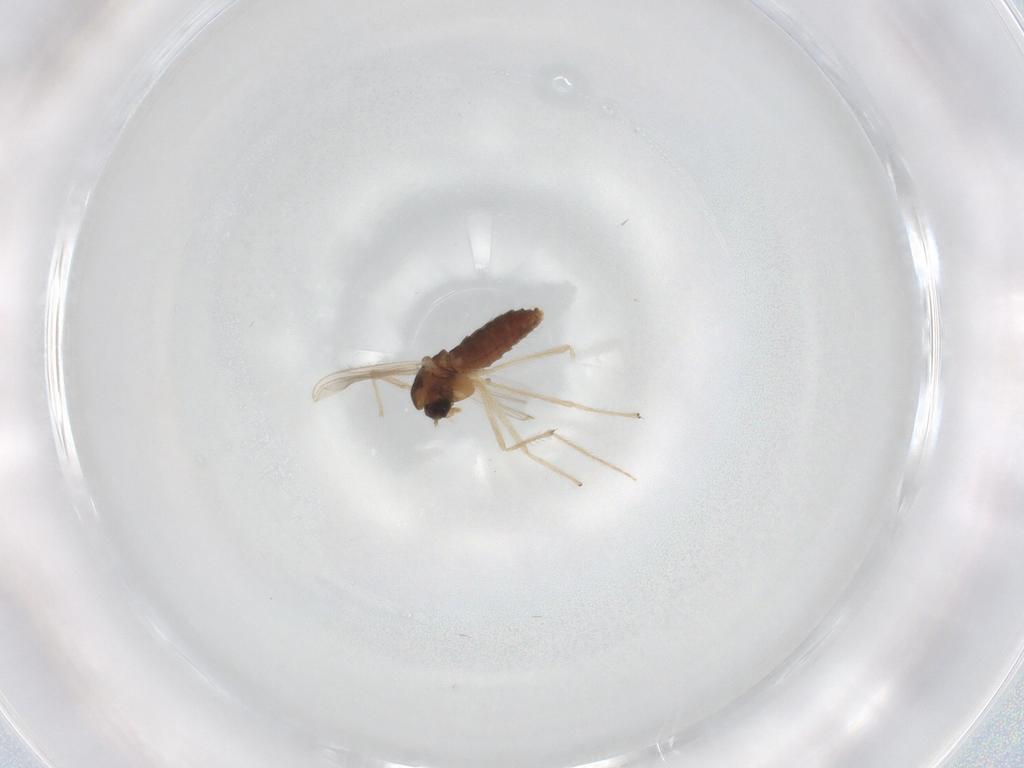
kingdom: Animalia
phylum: Arthropoda
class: Insecta
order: Diptera
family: Chironomidae
